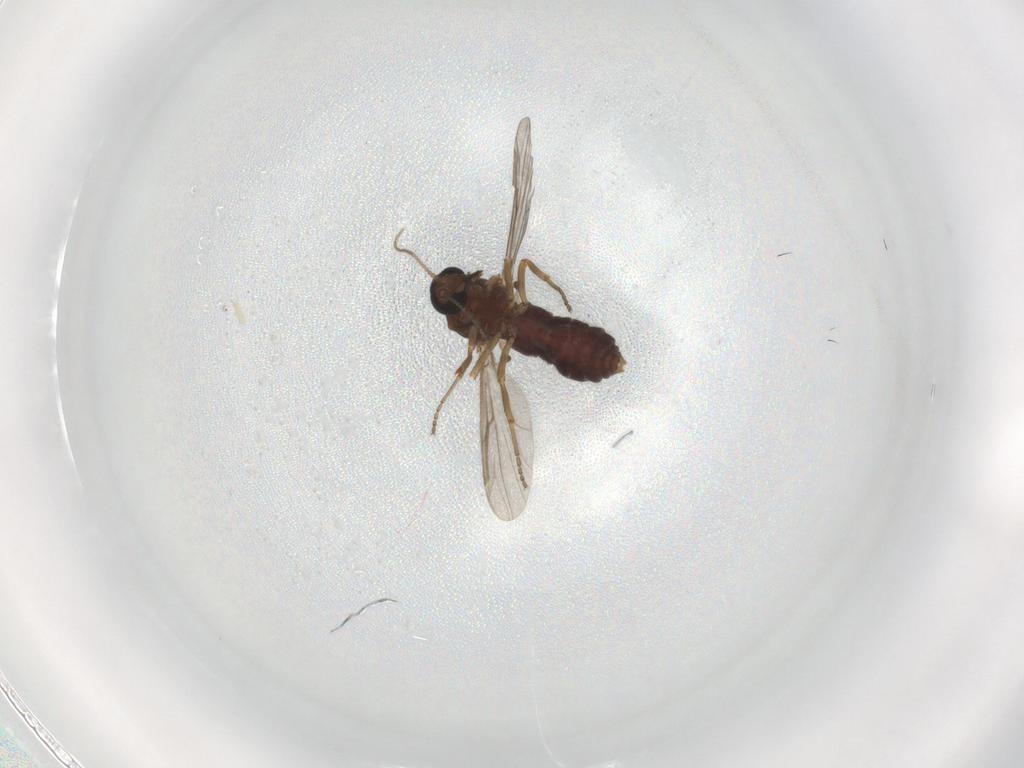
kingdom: Animalia
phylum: Arthropoda
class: Insecta
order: Diptera
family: Ceratopogonidae
